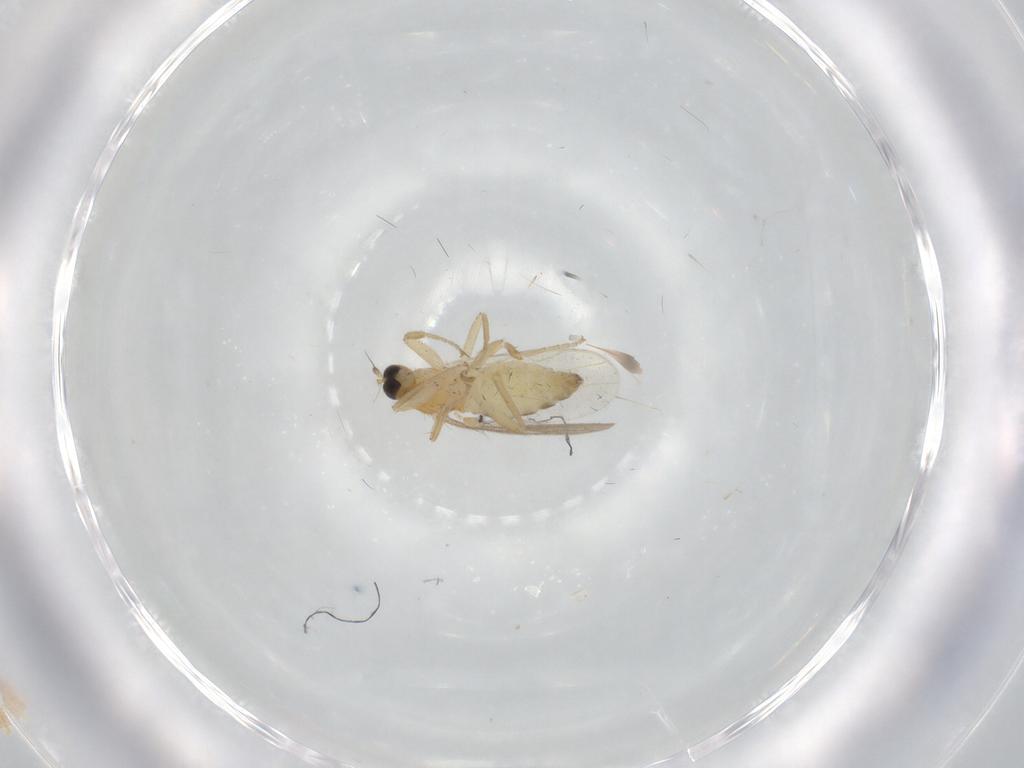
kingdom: Animalia
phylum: Arthropoda
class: Insecta
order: Diptera
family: Hybotidae
